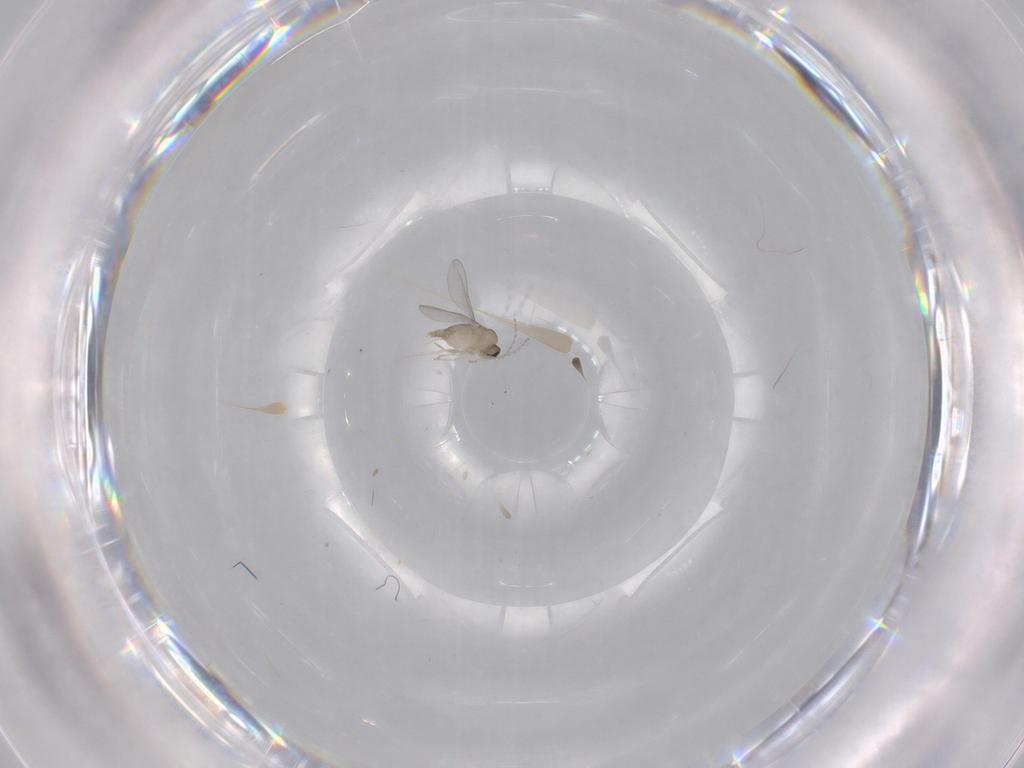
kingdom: Animalia
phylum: Arthropoda
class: Insecta
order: Diptera
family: Cecidomyiidae
